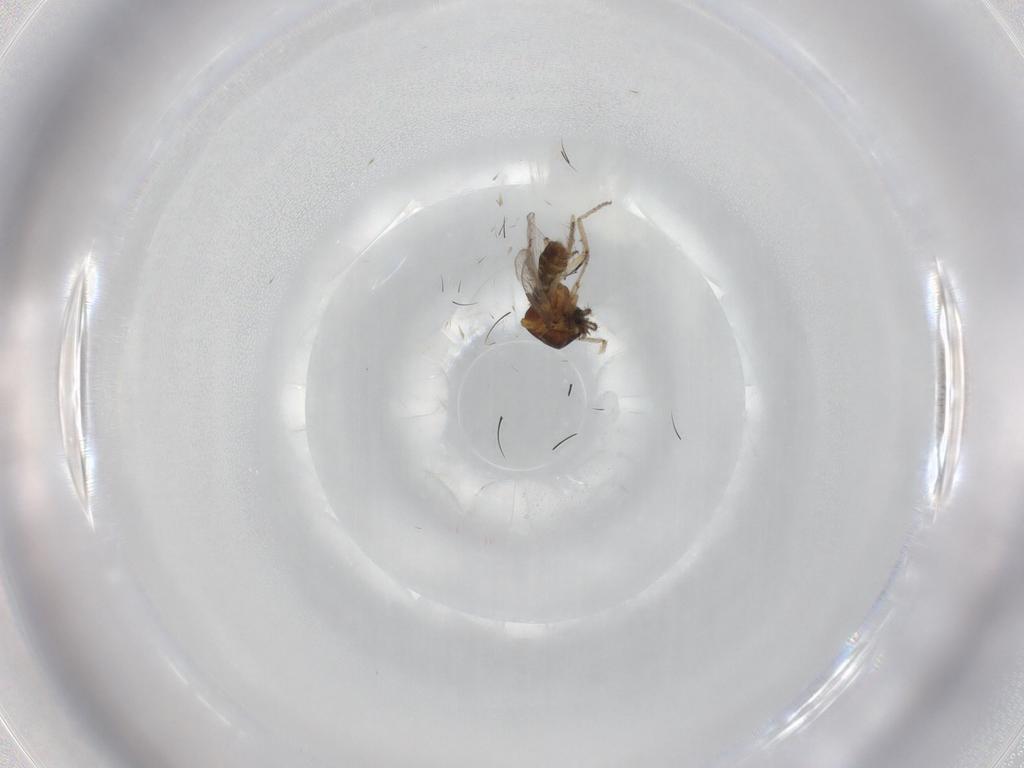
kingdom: Animalia
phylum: Arthropoda
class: Insecta
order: Diptera
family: Ceratopogonidae
